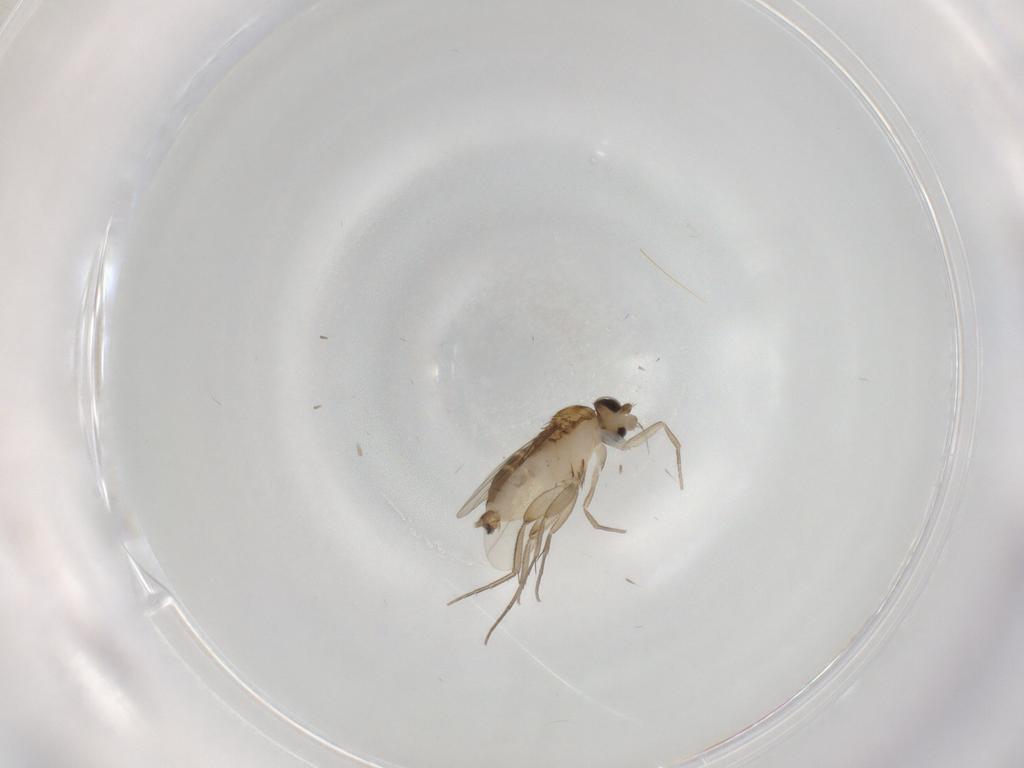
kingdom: Animalia
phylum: Arthropoda
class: Insecta
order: Diptera
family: Phoridae
